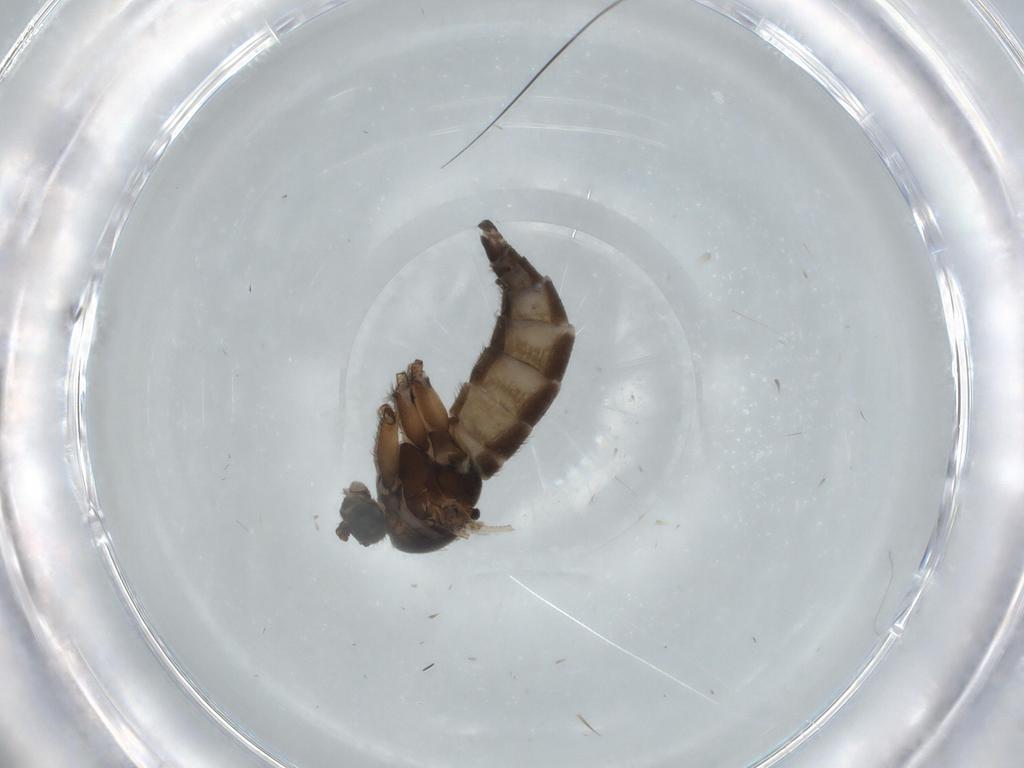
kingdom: Animalia
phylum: Arthropoda
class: Insecta
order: Diptera
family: Sciaridae
